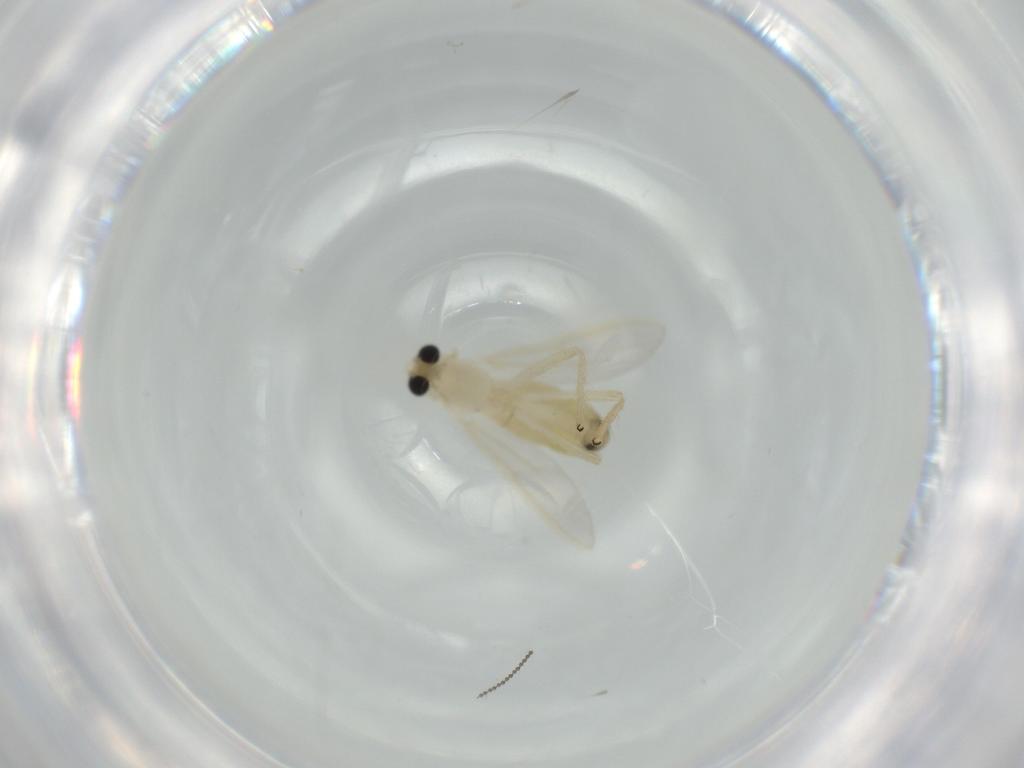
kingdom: Animalia
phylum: Arthropoda
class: Insecta
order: Diptera
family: Chironomidae
